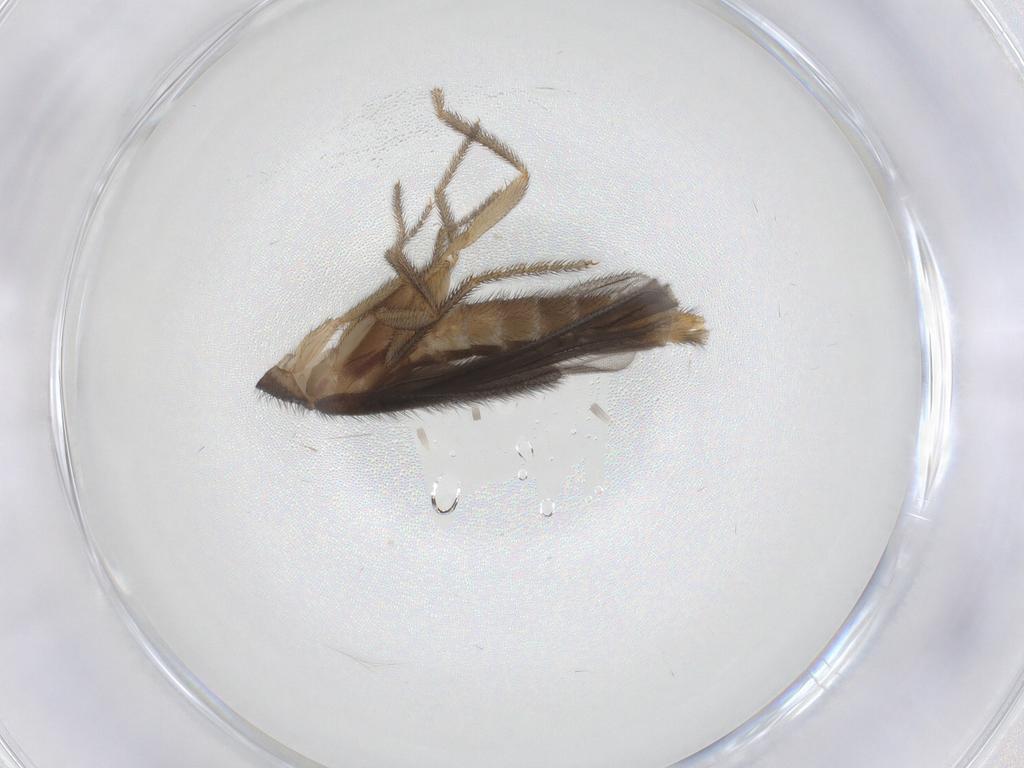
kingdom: Animalia
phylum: Arthropoda
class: Insecta
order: Coleoptera
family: Phengodidae
